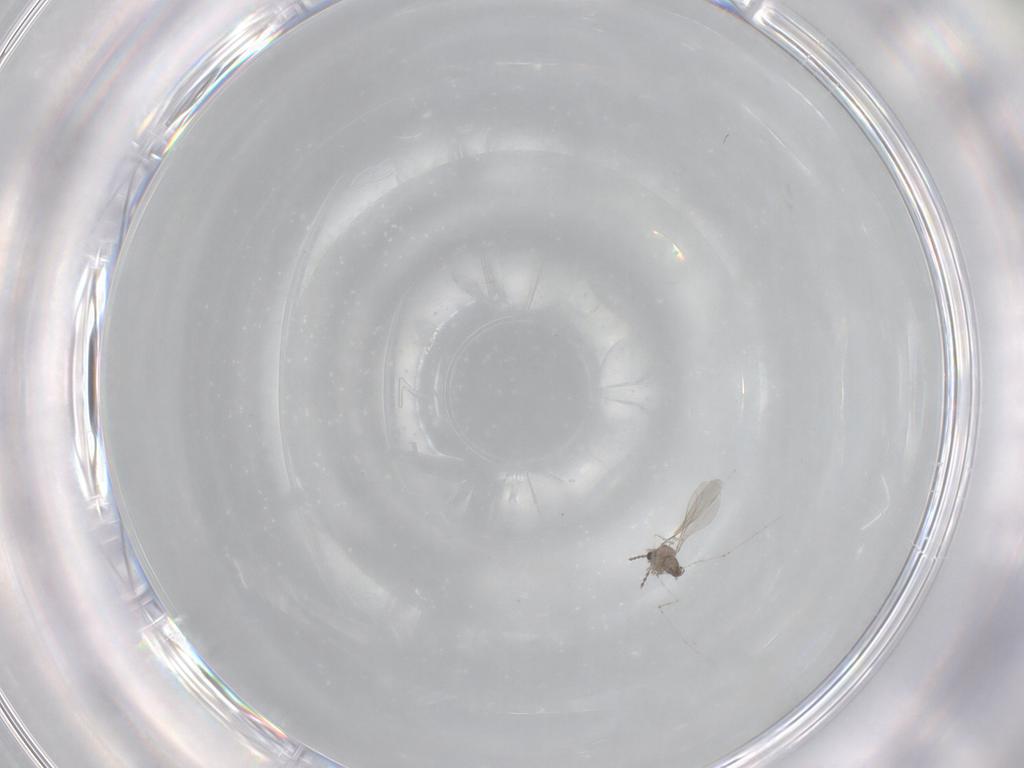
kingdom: Animalia
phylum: Arthropoda
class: Insecta
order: Diptera
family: Cecidomyiidae
